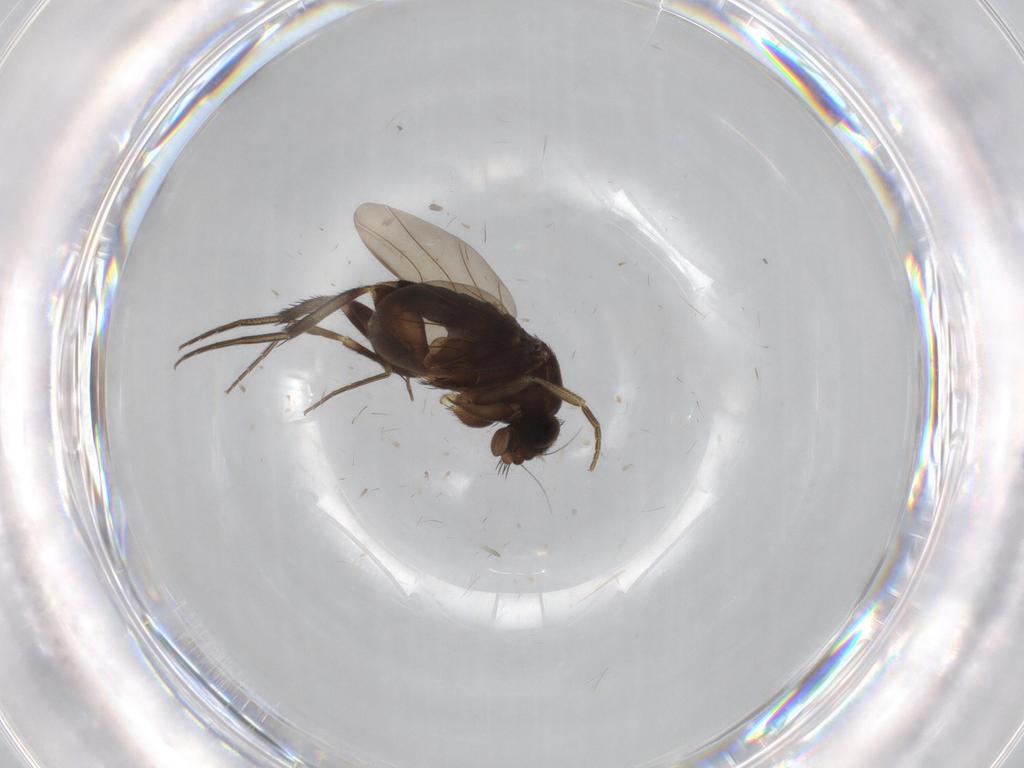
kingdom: Animalia
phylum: Arthropoda
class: Insecta
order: Diptera
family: Phoridae
